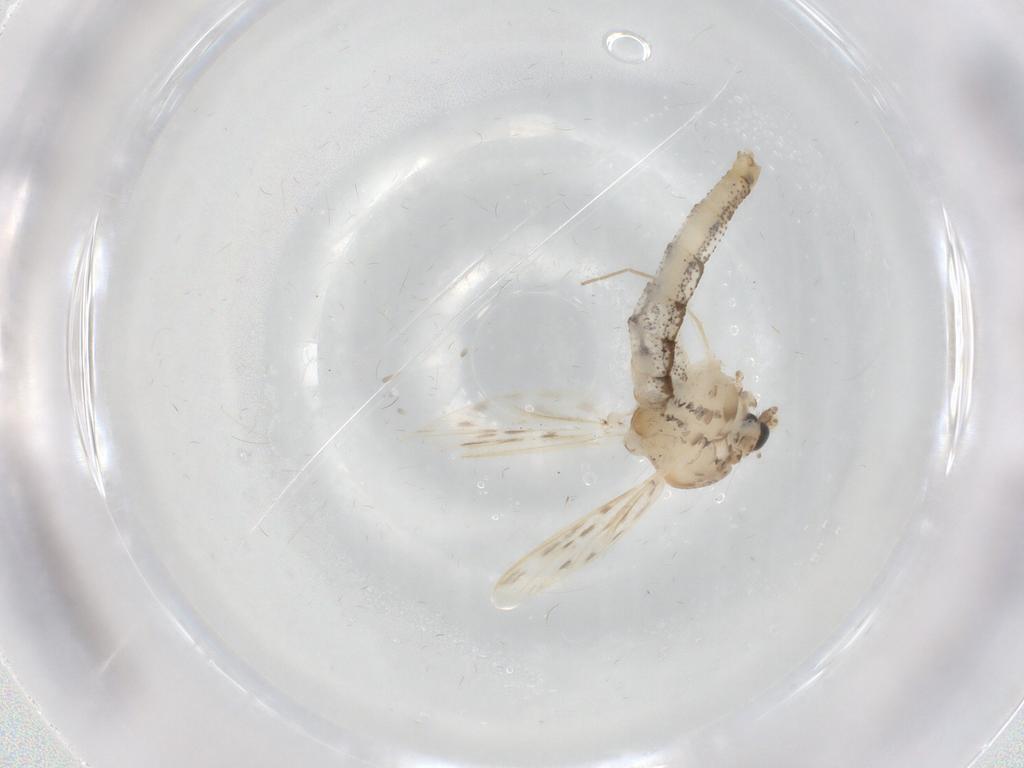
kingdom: Animalia
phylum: Arthropoda
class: Insecta
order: Diptera
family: Chaoboridae
